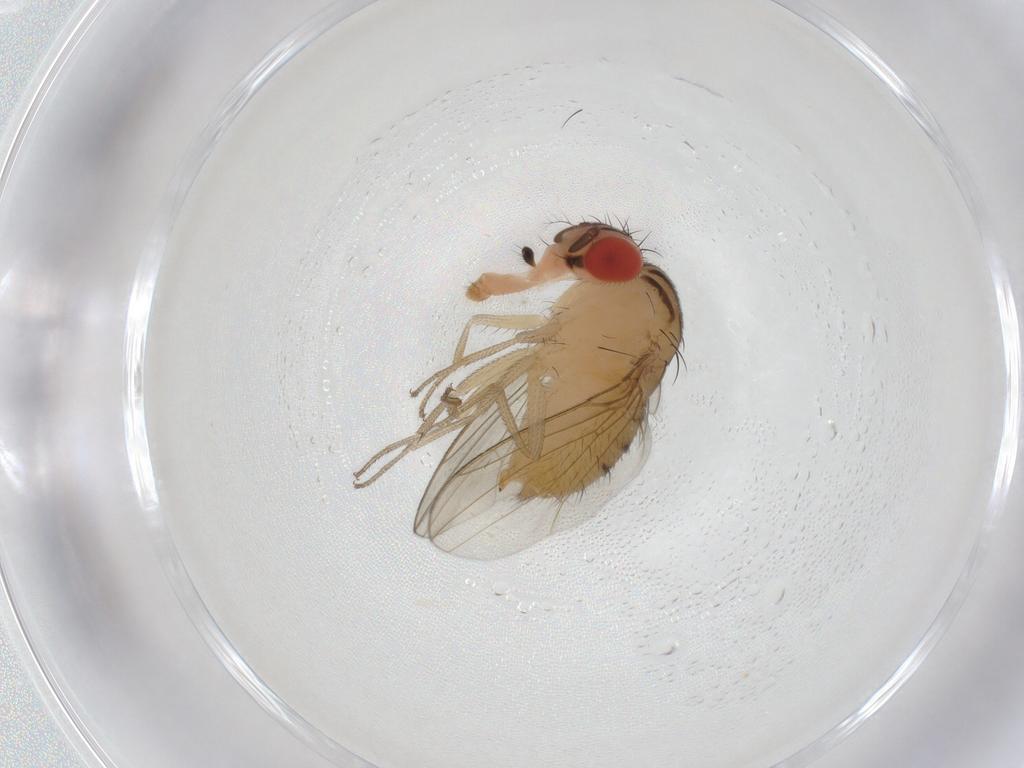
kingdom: Animalia
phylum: Arthropoda
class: Insecta
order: Diptera
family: Drosophilidae
